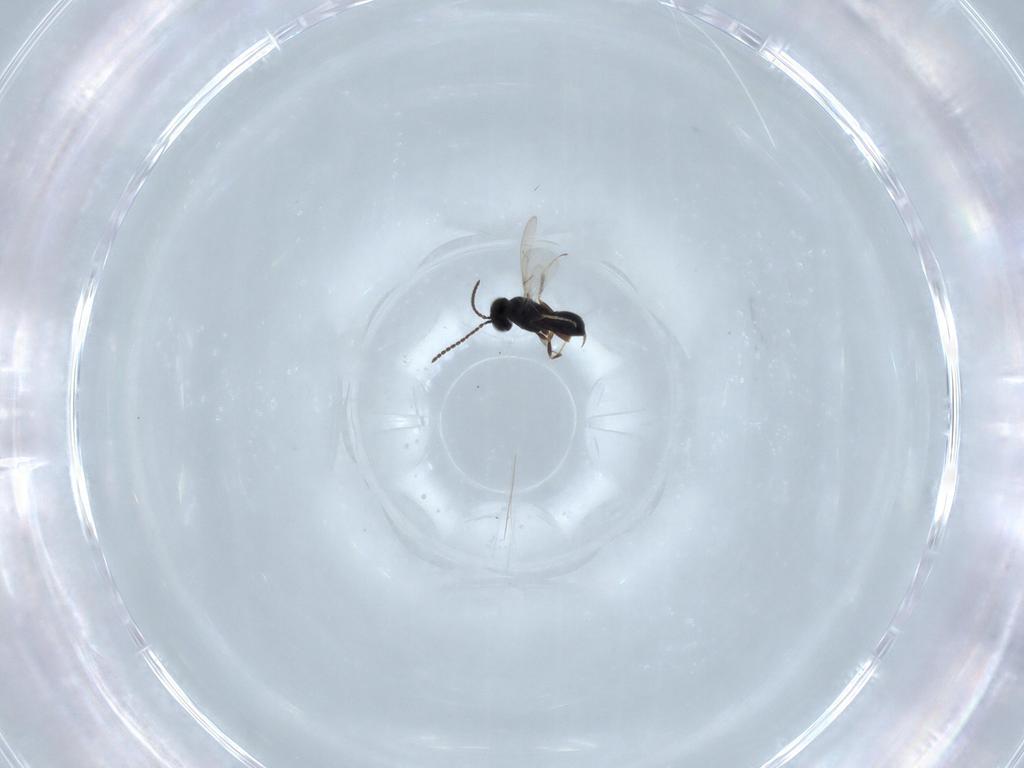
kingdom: Animalia
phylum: Arthropoda
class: Insecta
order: Hymenoptera
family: Scelionidae
